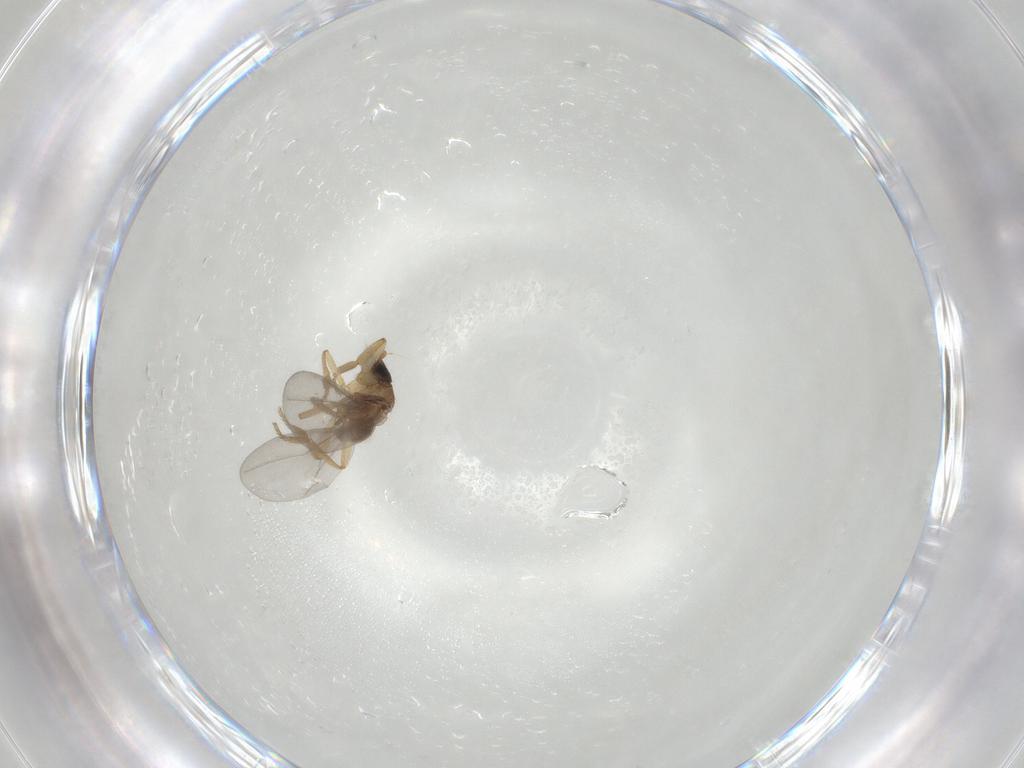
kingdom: Animalia
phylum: Arthropoda
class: Insecta
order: Diptera
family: Phoridae
